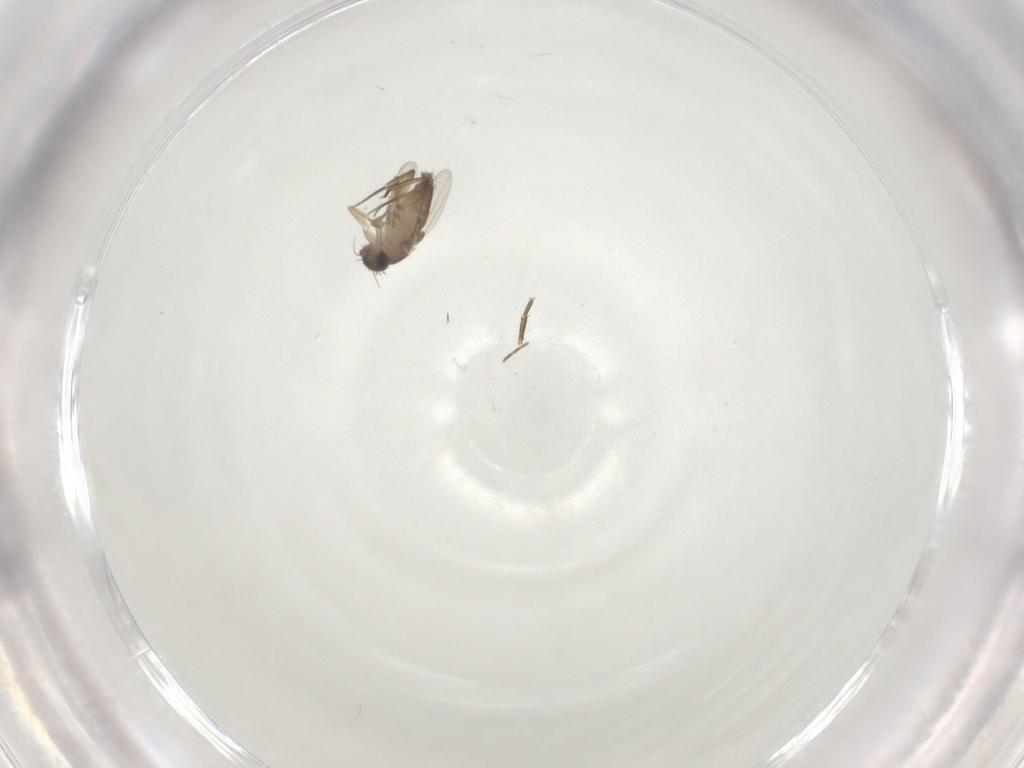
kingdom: Animalia
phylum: Arthropoda
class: Insecta
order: Diptera
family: Phoridae
